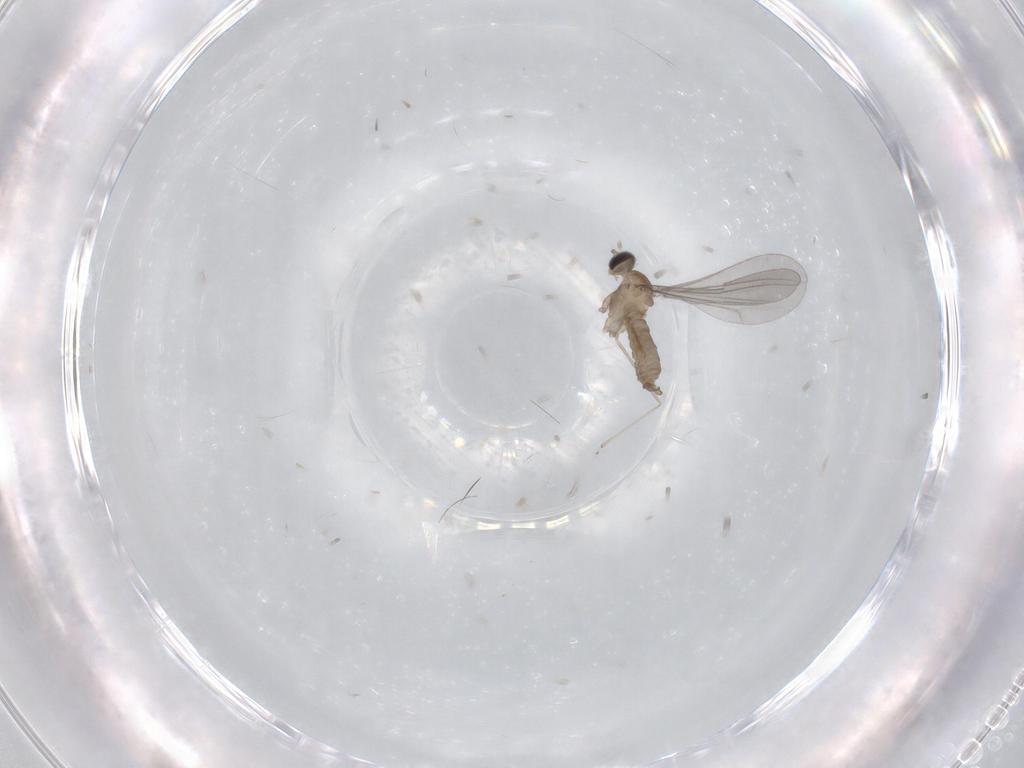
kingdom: Animalia
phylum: Arthropoda
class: Insecta
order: Diptera
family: Cecidomyiidae
